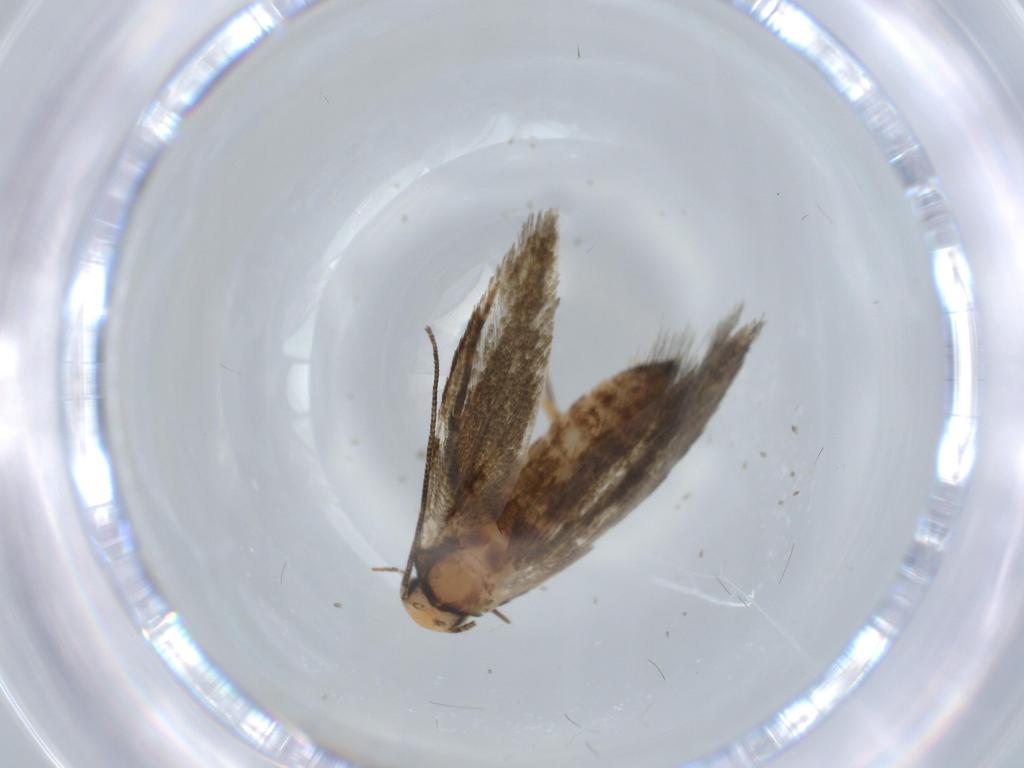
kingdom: Animalia
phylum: Arthropoda
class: Insecta
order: Lepidoptera
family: Tineidae
